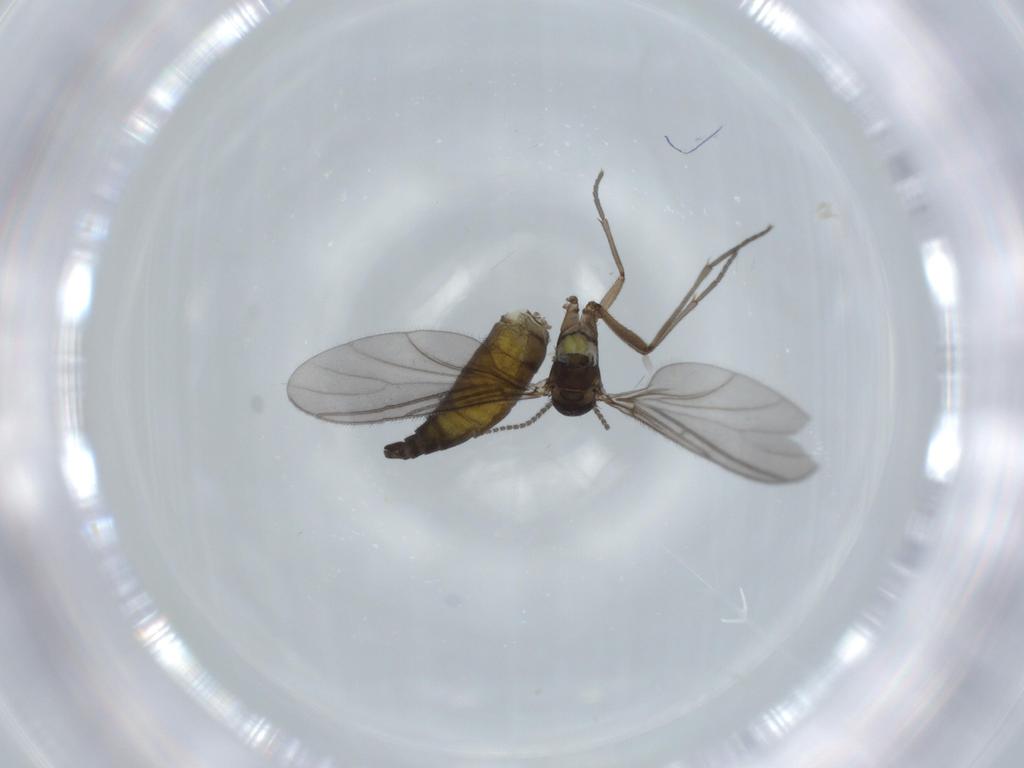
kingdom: Animalia
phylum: Arthropoda
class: Insecta
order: Diptera
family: Sciaridae
